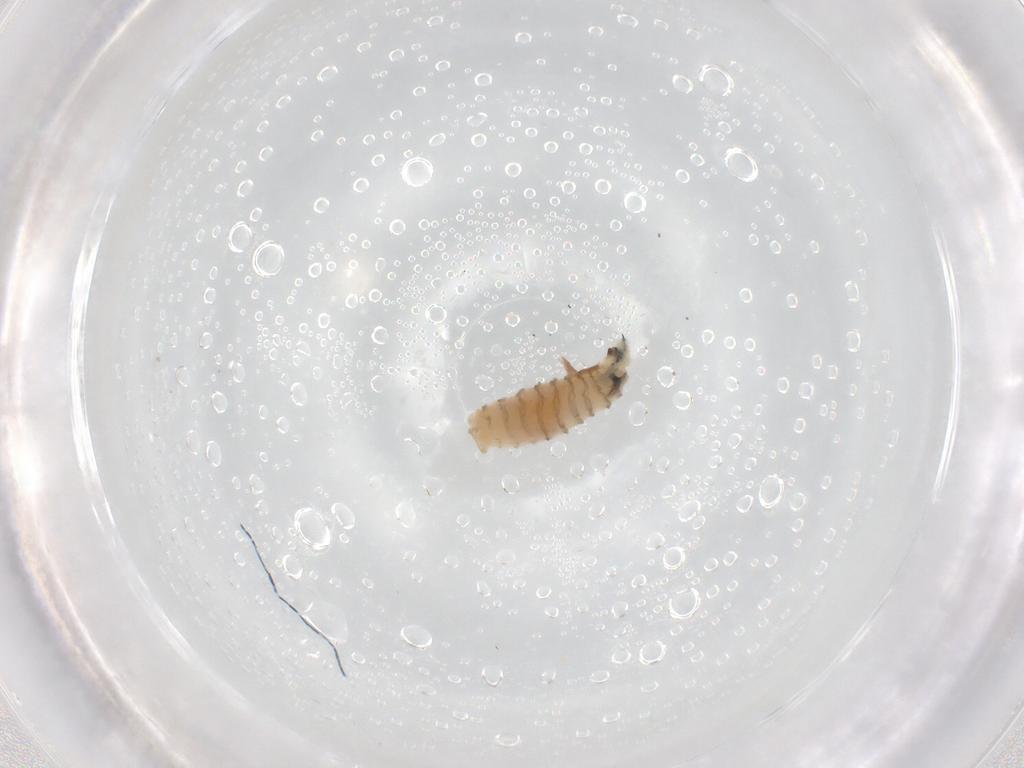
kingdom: Animalia
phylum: Arthropoda
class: Insecta
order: Diptera
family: Sarcophagidae
